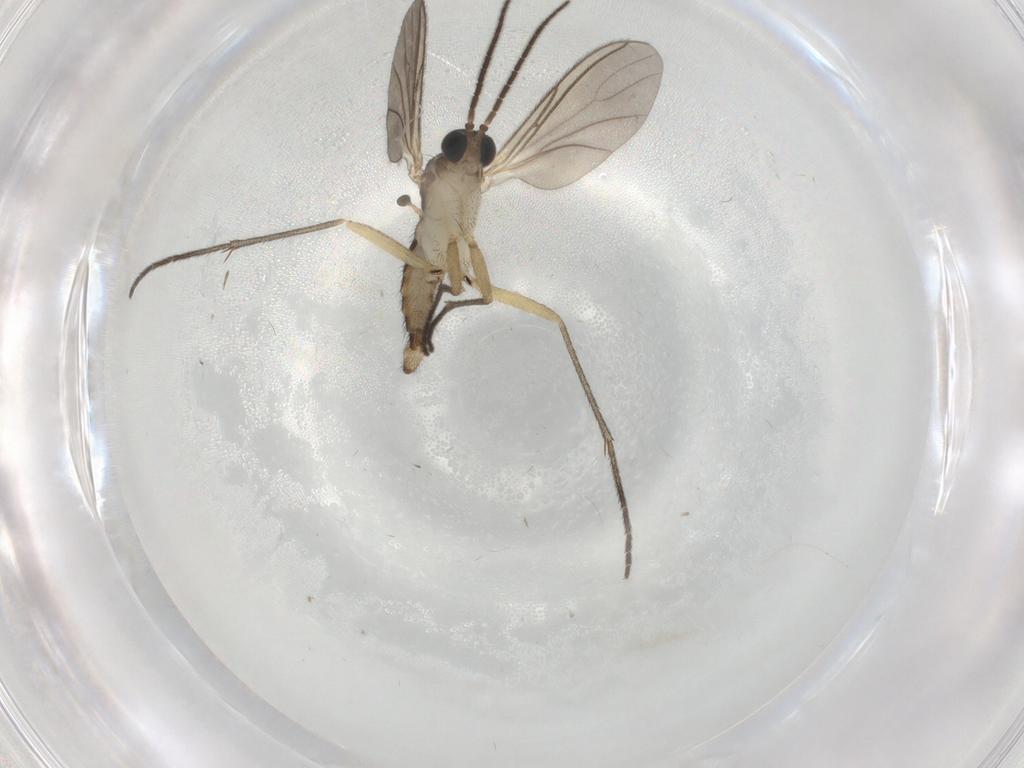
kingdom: Animalia
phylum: Arthropoda
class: Insecta
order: Diptera
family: Sciaridae
